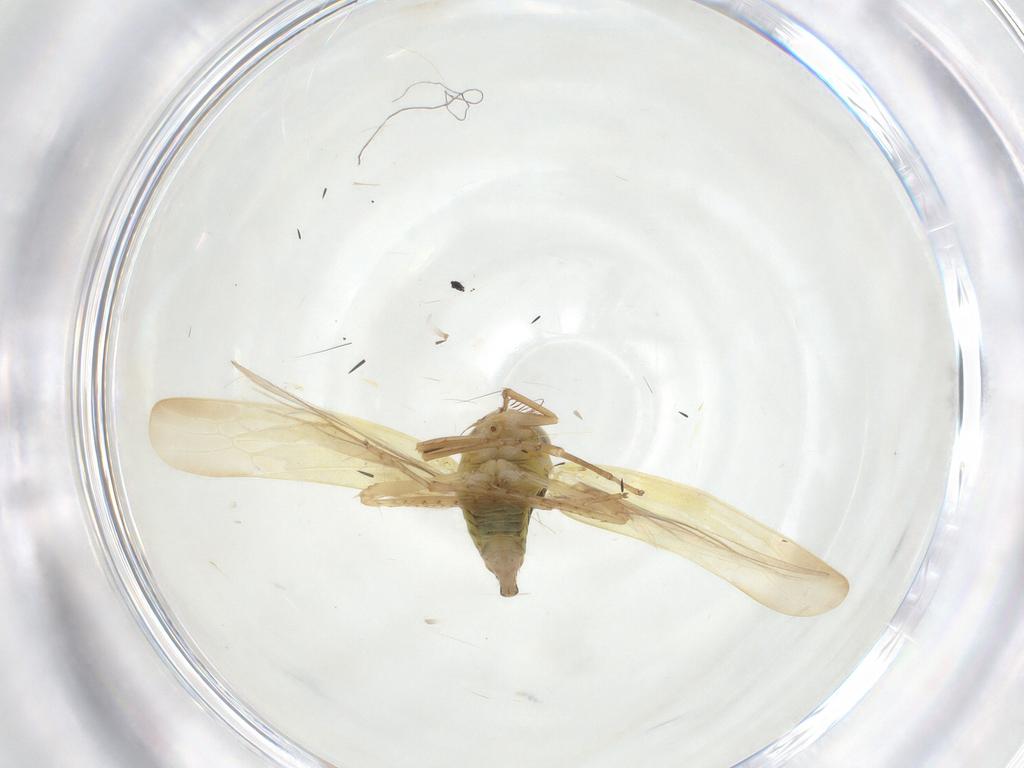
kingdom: Animalia
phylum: Arthropoda
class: Insecta
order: Hemiptera
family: Cicadellidae
